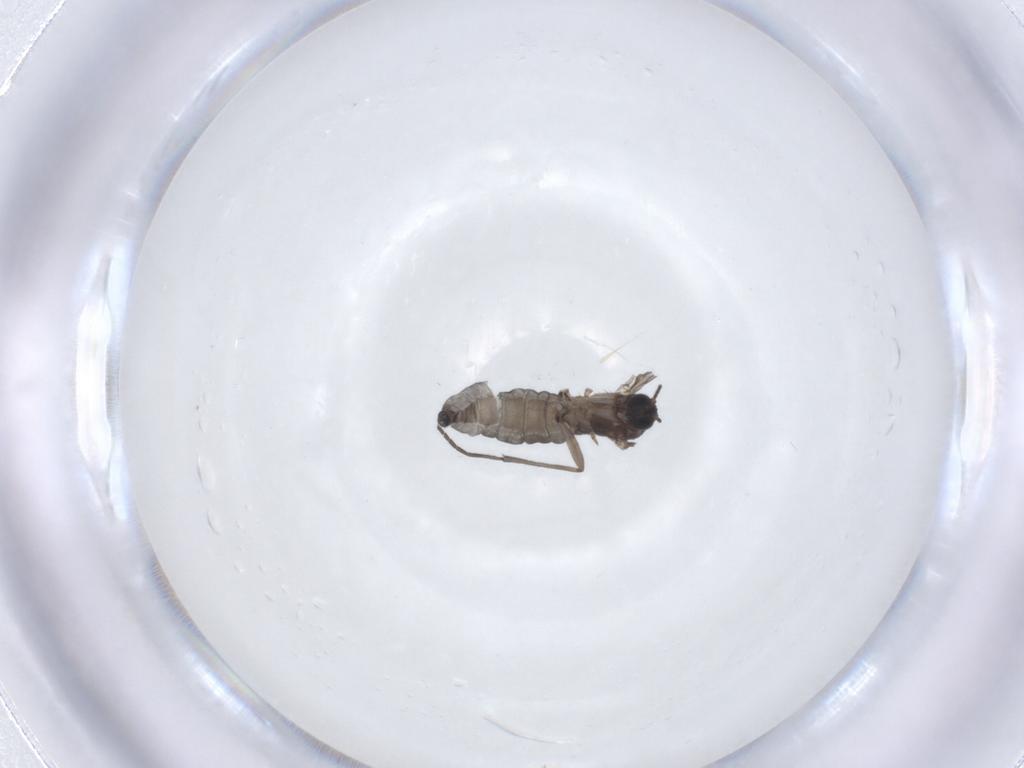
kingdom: Animalia
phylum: Arthropoda
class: Insecta
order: Diptera
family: Sciaridae
